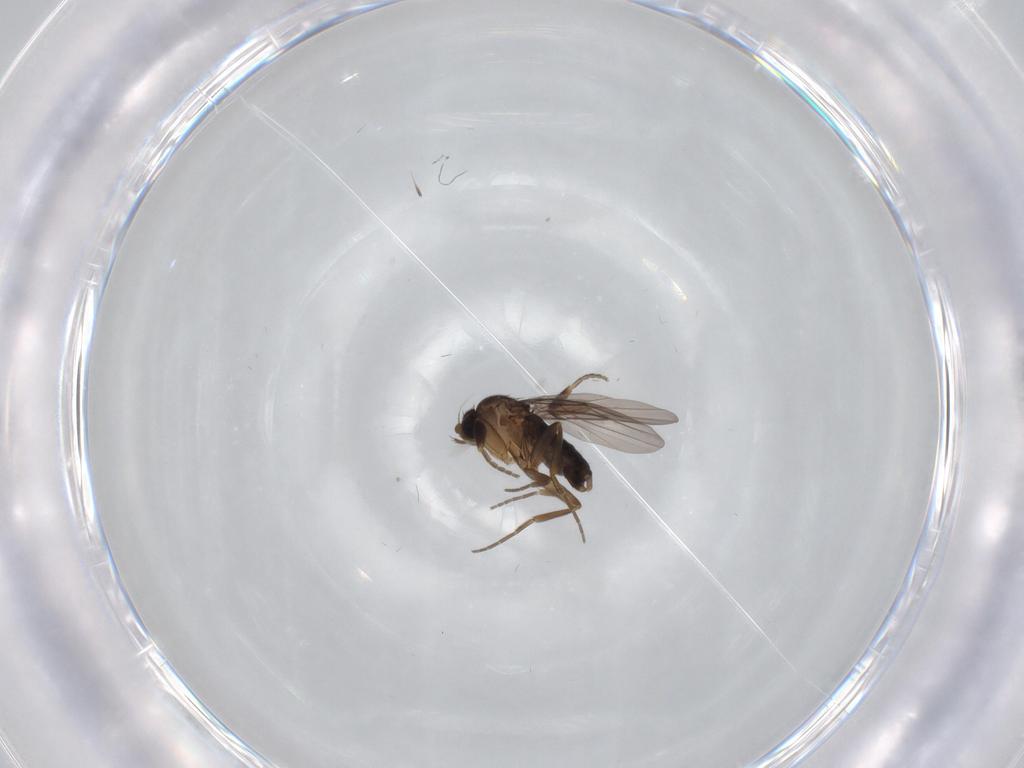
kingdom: Animalia
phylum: Arthropoda
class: Insecta
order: Diptera
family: Phoridae
